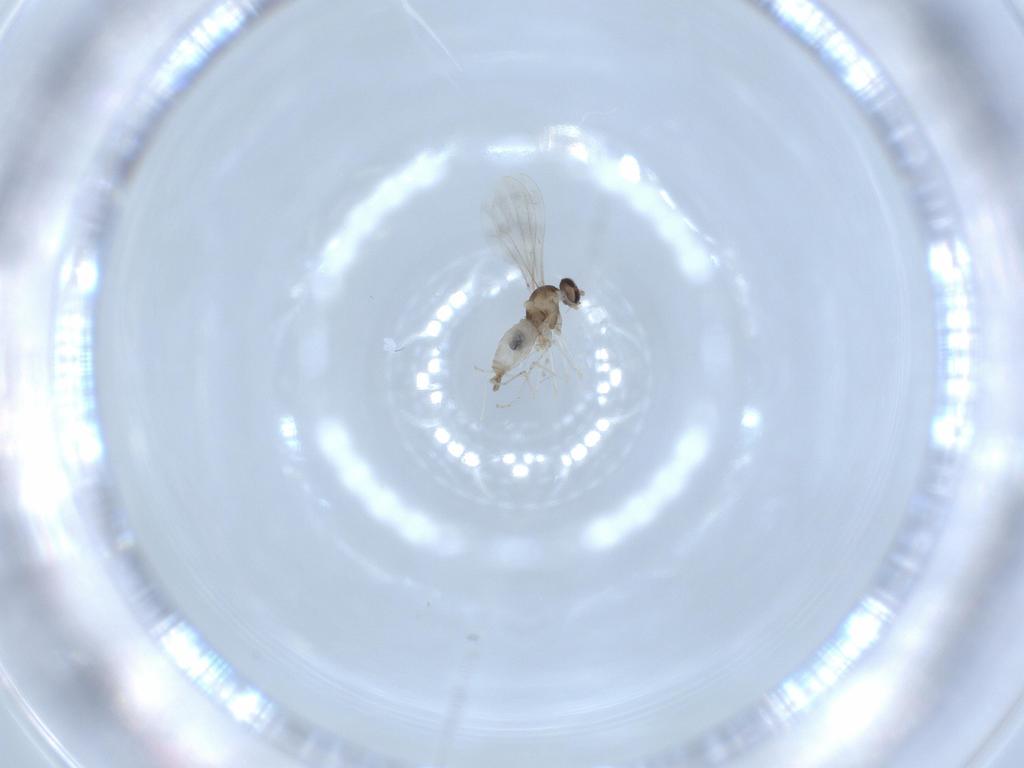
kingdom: Animalia
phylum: Arthropoda
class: Insecta
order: Diptera
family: Cecidomyiidae
